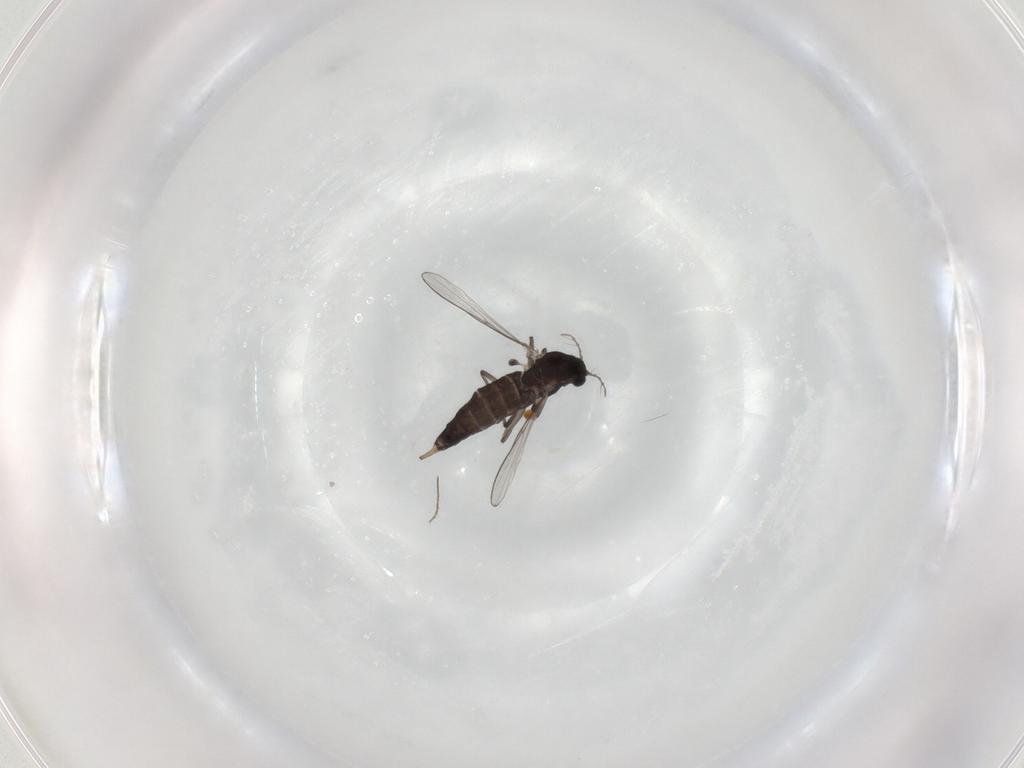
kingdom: Animalia
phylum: Arthropoda
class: Insecta
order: Diptera
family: Chironomidae
